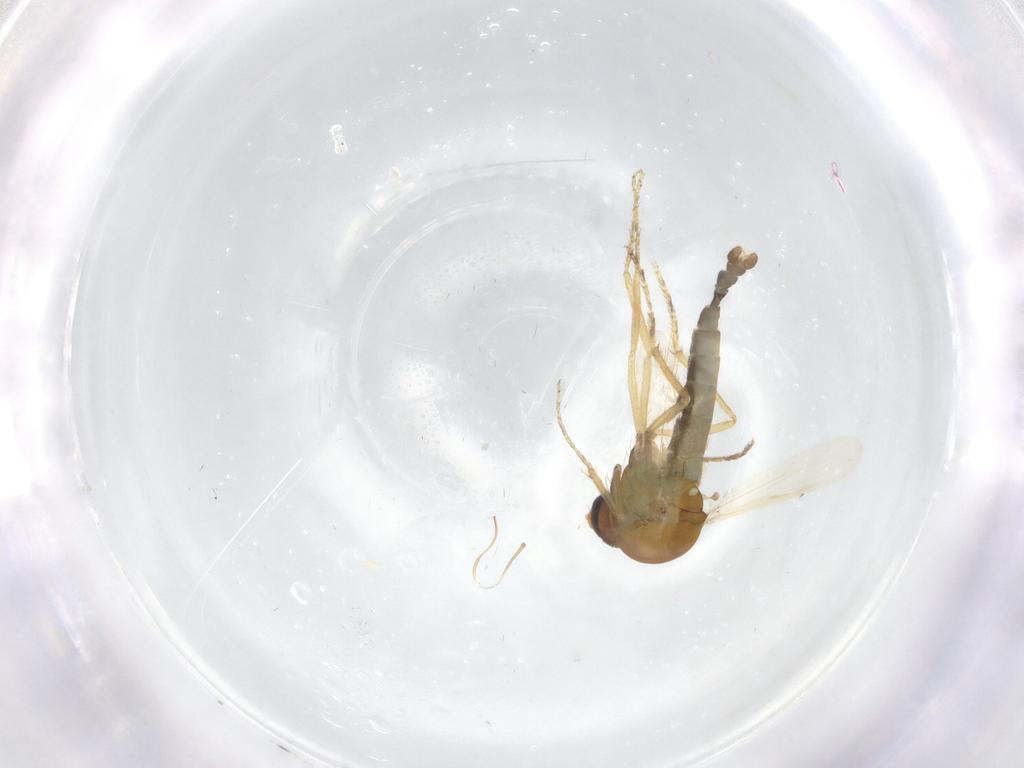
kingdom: Animalia
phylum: Arthropoda
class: Insecta
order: Diptera
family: Ceratopogonidae
